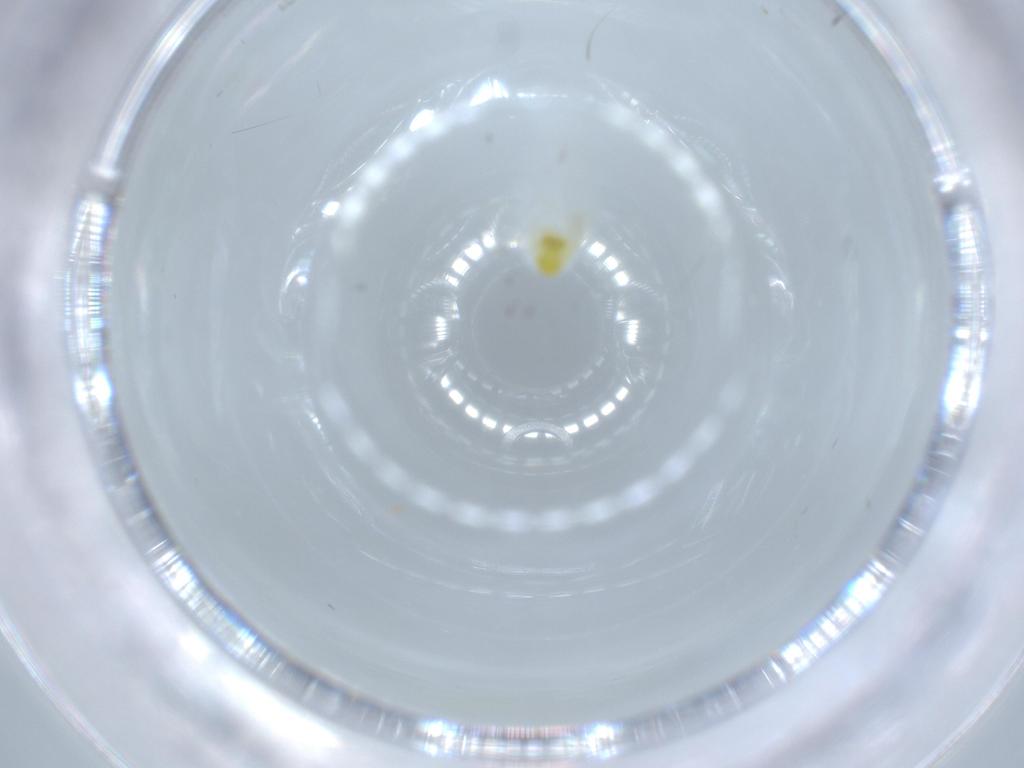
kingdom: Animalia
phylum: Arthropoda
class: Insecta
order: Lepidoptera
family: Tineidae
